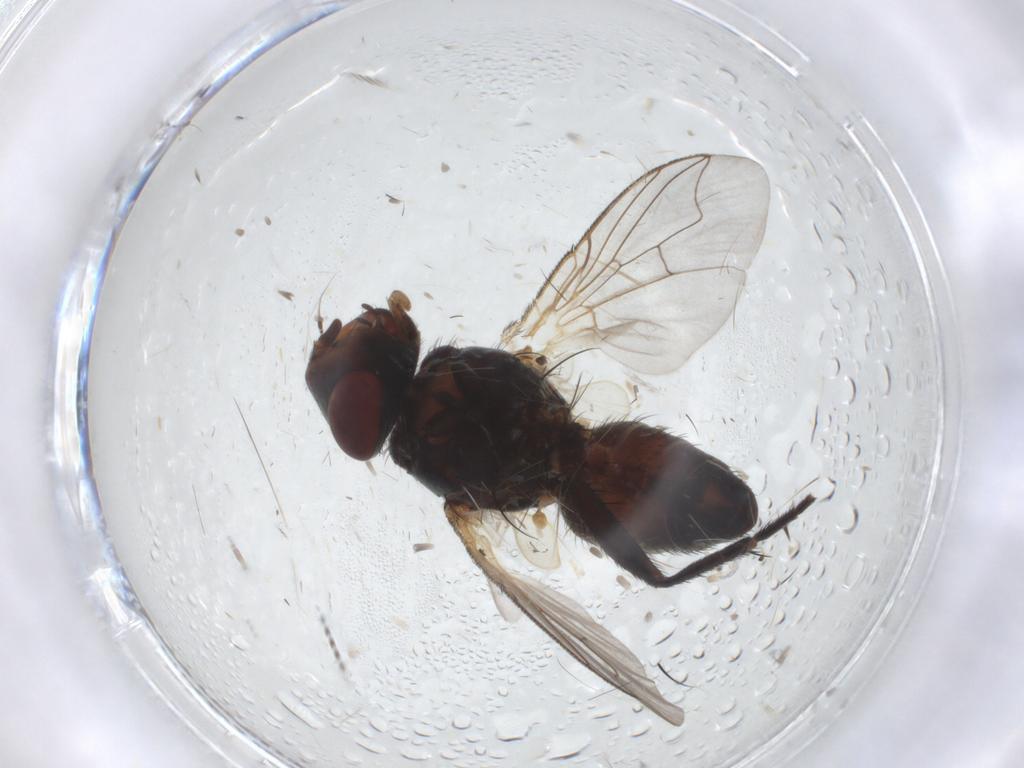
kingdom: Animalia
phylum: Arthropoda
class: Insecta
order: Diptera
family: Sarcophagidae
